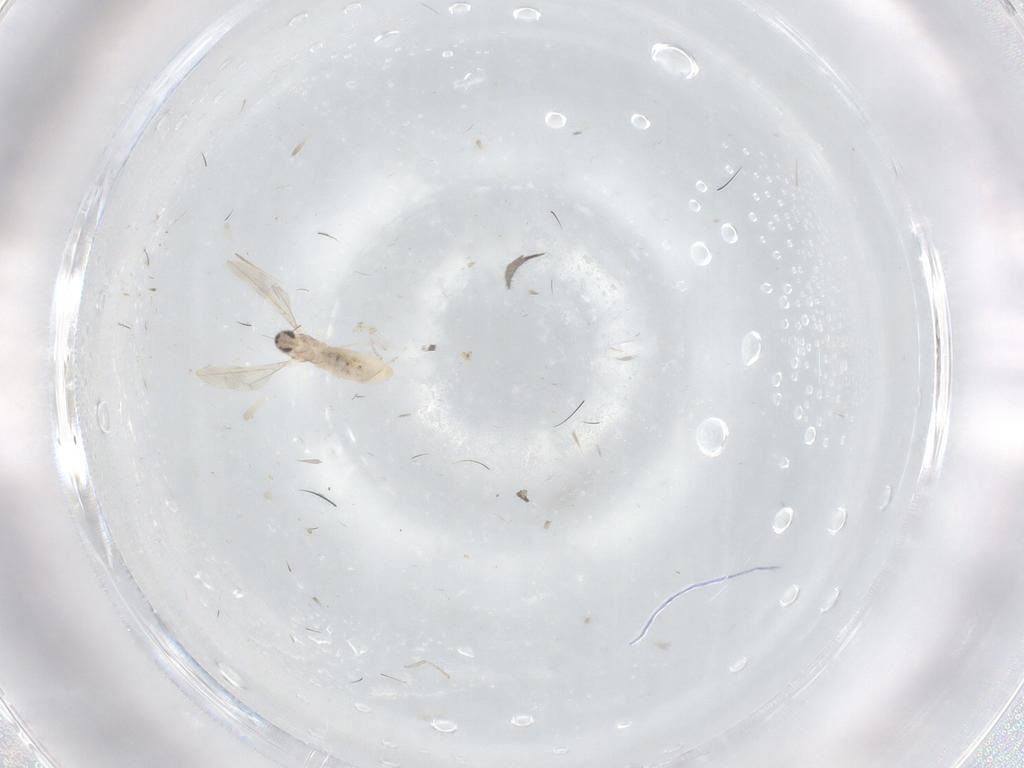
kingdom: Animalia
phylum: Arthropoda
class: Insecta
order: Diptera
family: Cecidomyiidae
